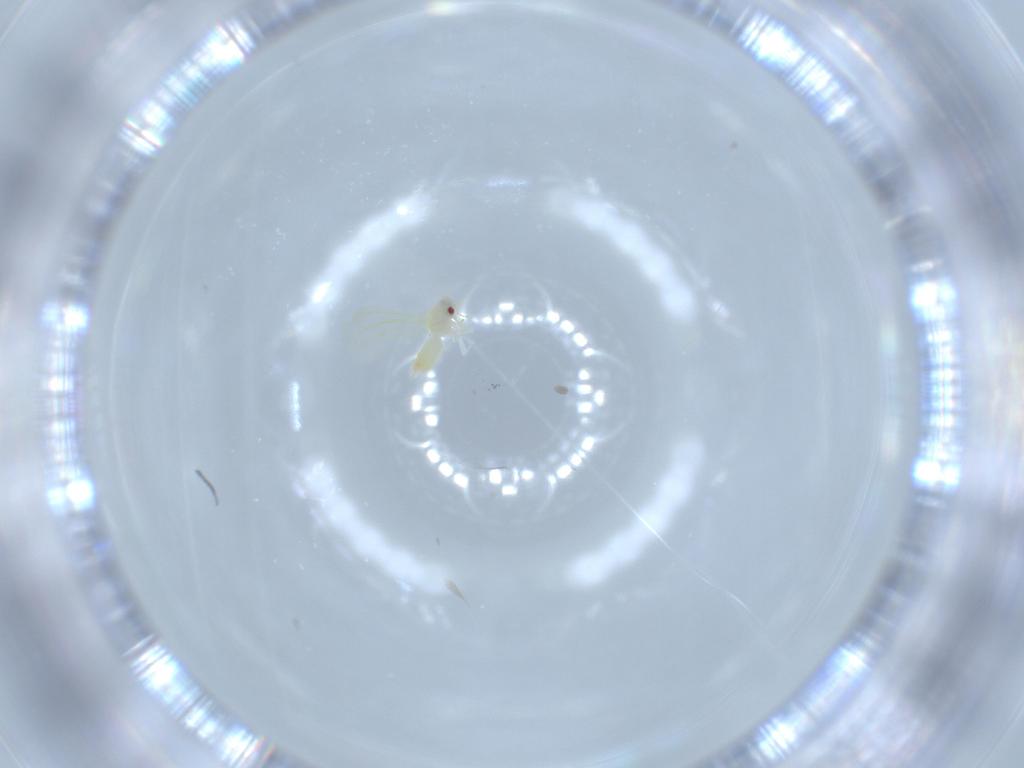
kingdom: Animalia
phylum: Arthropoda
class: Insecta
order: Hemiptera
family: Aleyrodidae
